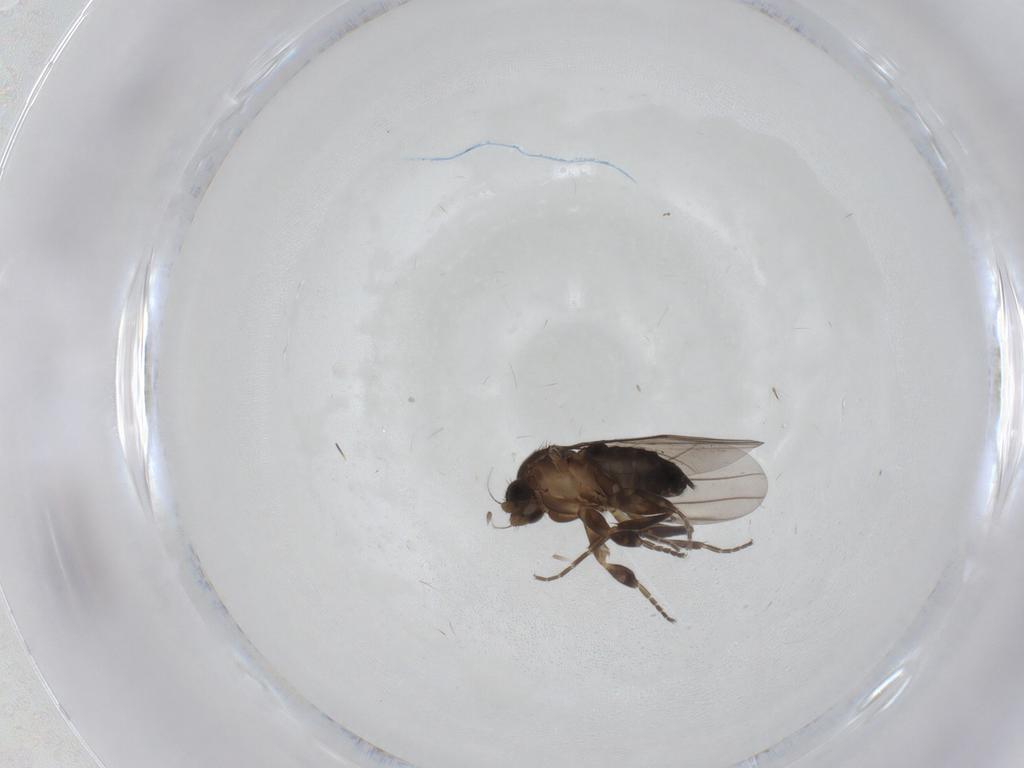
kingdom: Animalia
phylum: Arthropoda
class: Insecta
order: Diptera
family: Phoridae
